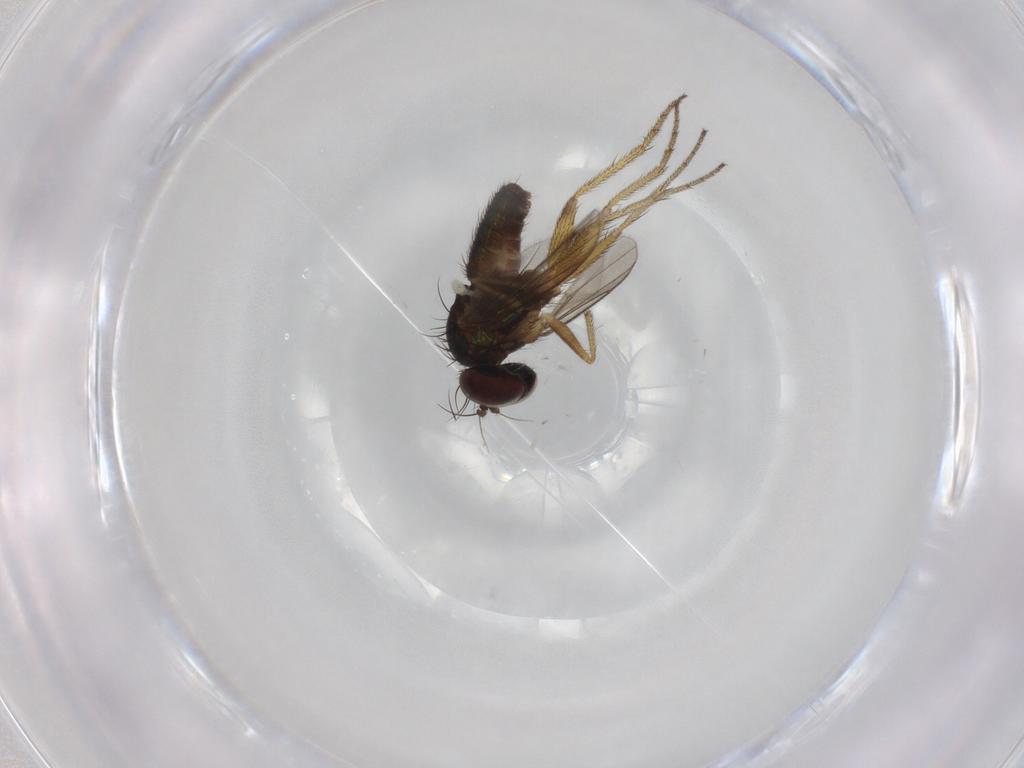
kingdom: Animalia
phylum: Arthropoda
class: Insecta
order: Diptera
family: Dolichopodidae
